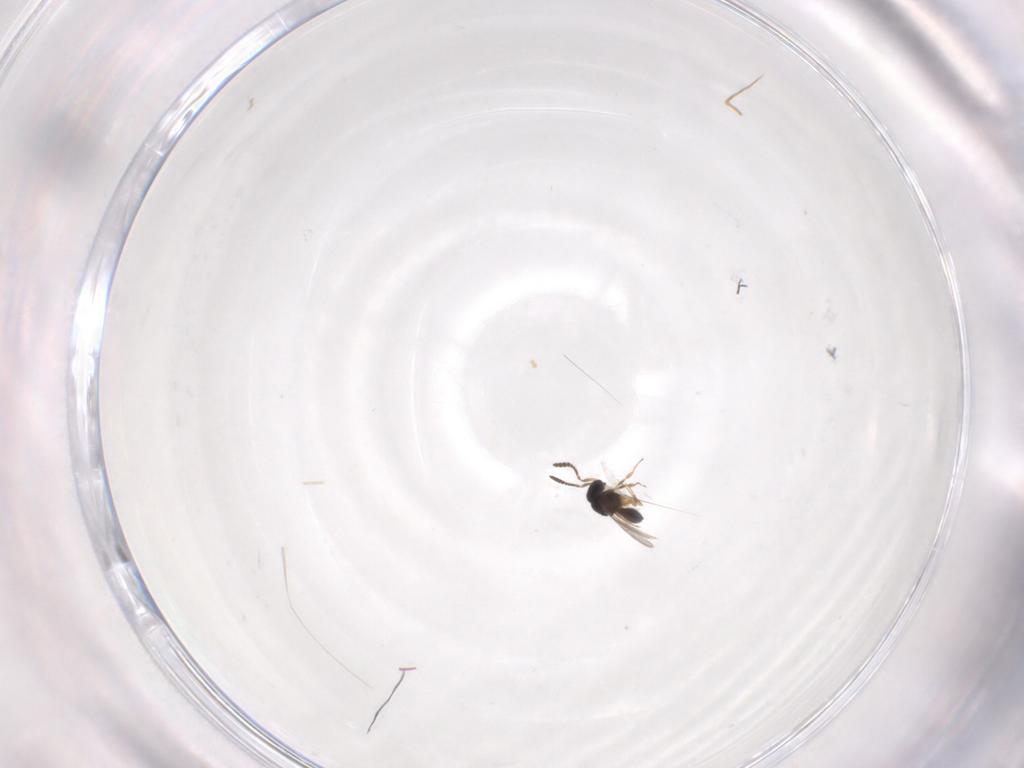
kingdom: Animalia
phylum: Arthropoda
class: Insecta
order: Hymenoptera
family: Scelionidae
